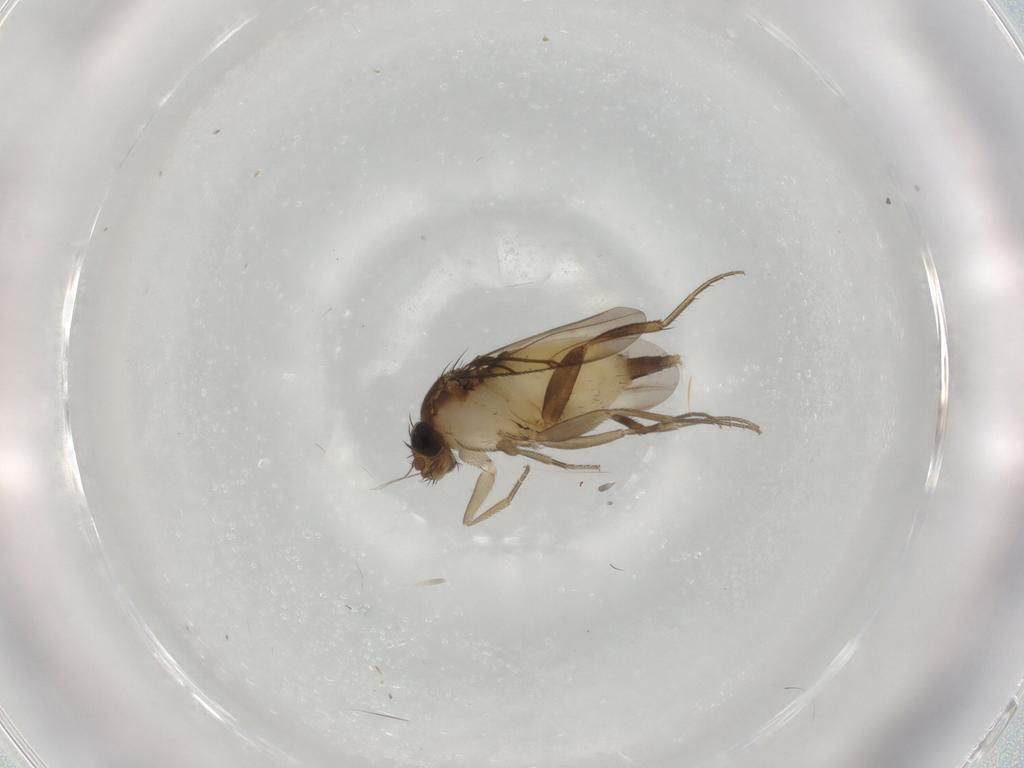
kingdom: Animalia
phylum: Arthropoda
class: Insecta
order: Diptera
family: Phoridae
